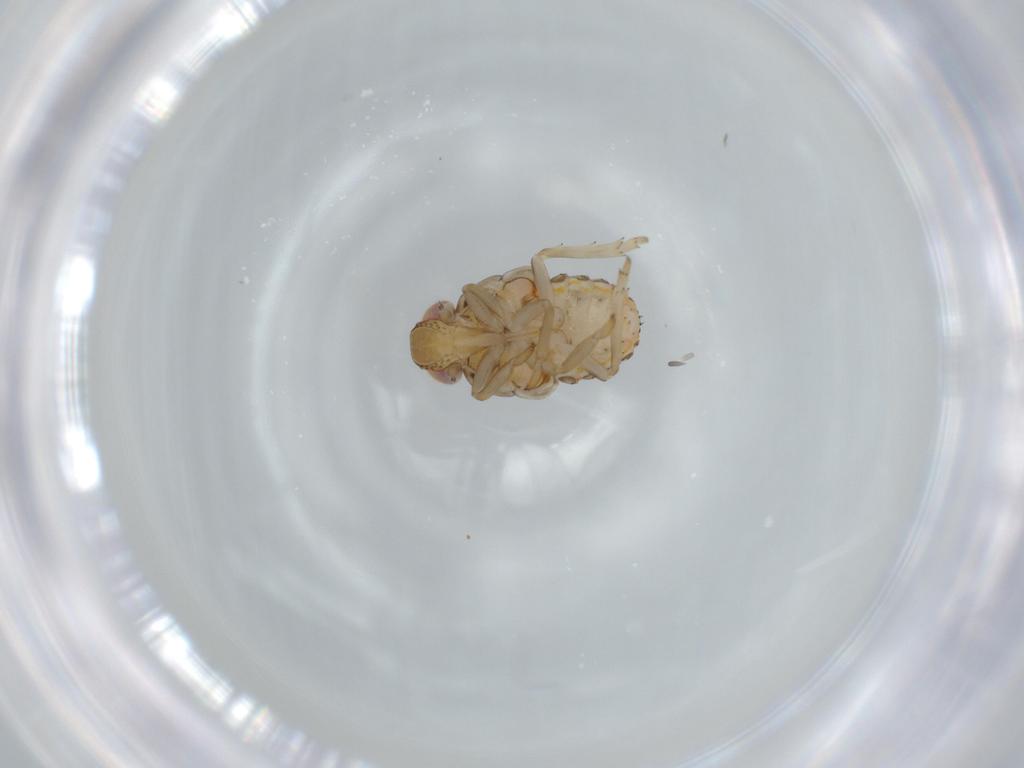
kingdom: Animalia
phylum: Arthropoda
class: Insecta
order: Hemiptera
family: Issidae
